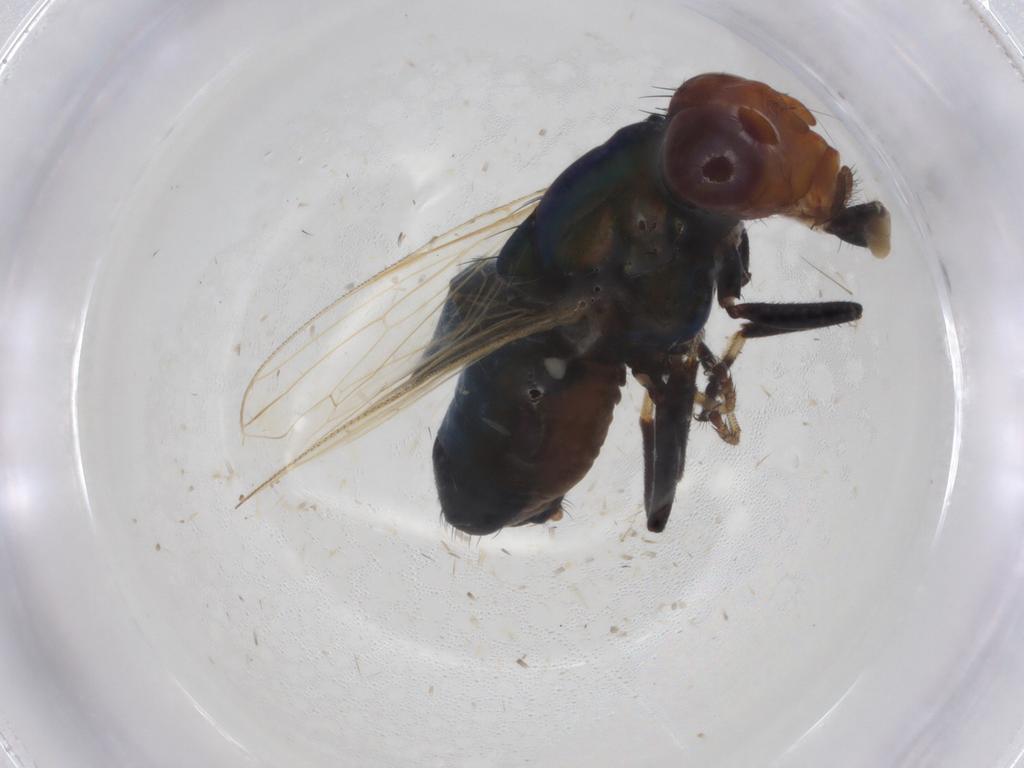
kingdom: Animalia
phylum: Arthropoda
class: Insecta
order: Diptera
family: Ulidiidae
